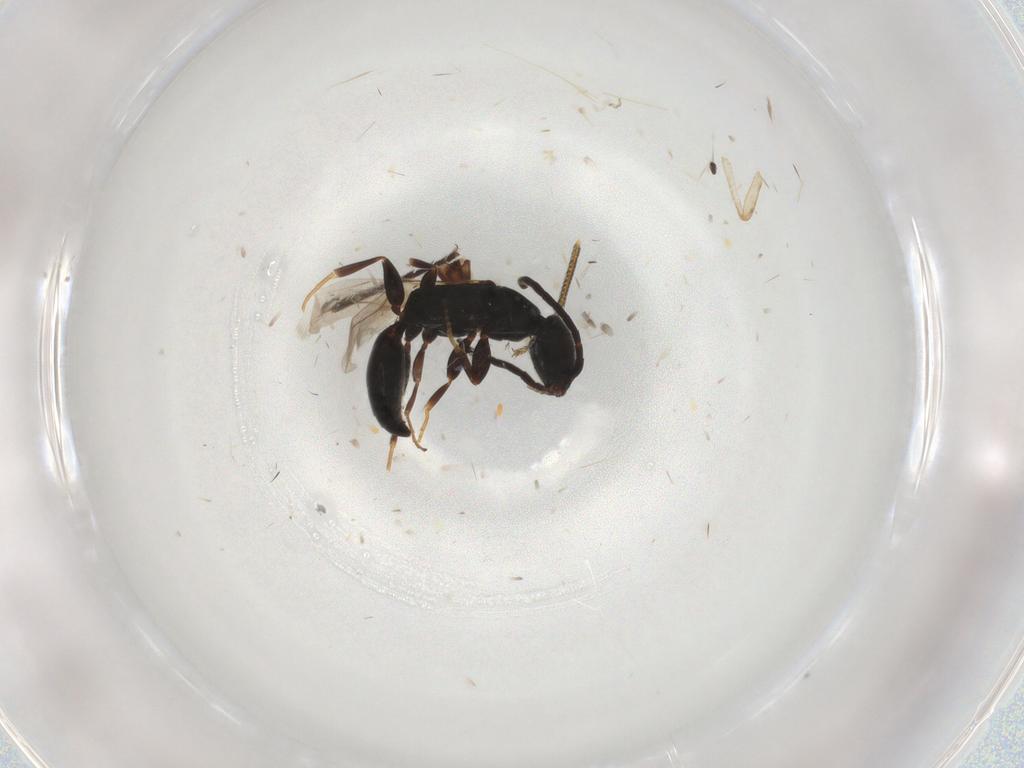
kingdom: Animalia
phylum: Arthropoda
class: Insecta
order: Hymenoptera
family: Bethylidae
